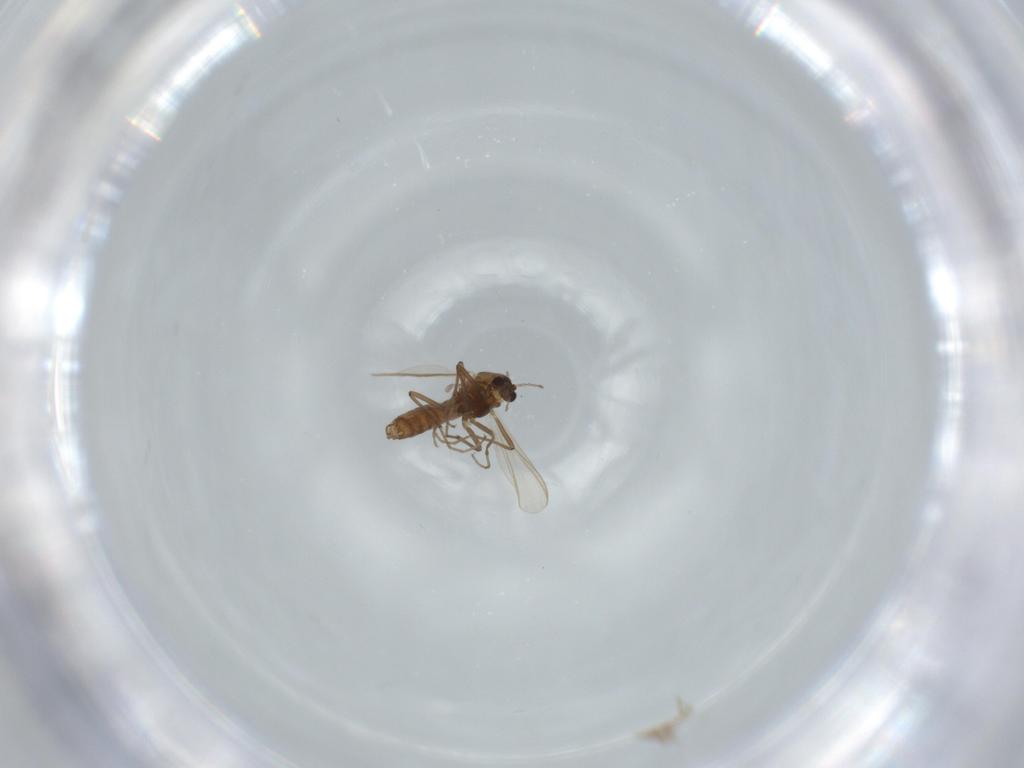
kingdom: Animalia
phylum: Arthropoda
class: Insecta
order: Diptera
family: Chironomidae
